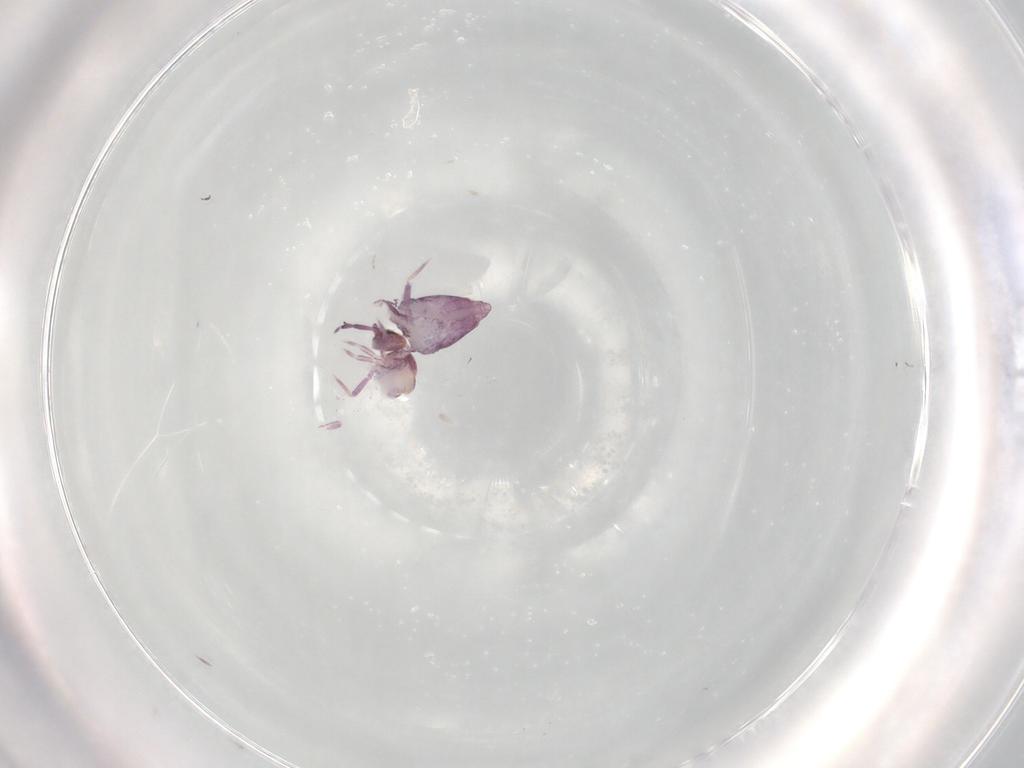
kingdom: Animalia
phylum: Arthropoda
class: Collembola
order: Entomobryomorpha
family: Entomobryidae
